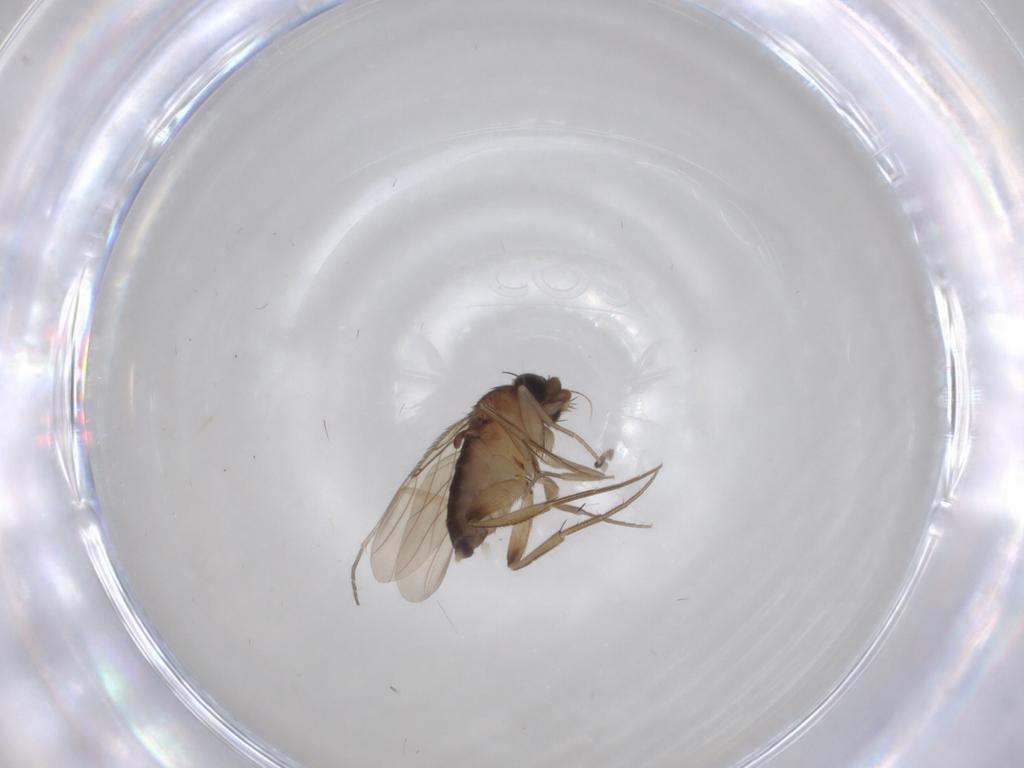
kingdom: Animalia
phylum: Arthropoda
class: Insecta
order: Diptera
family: Phoridae
